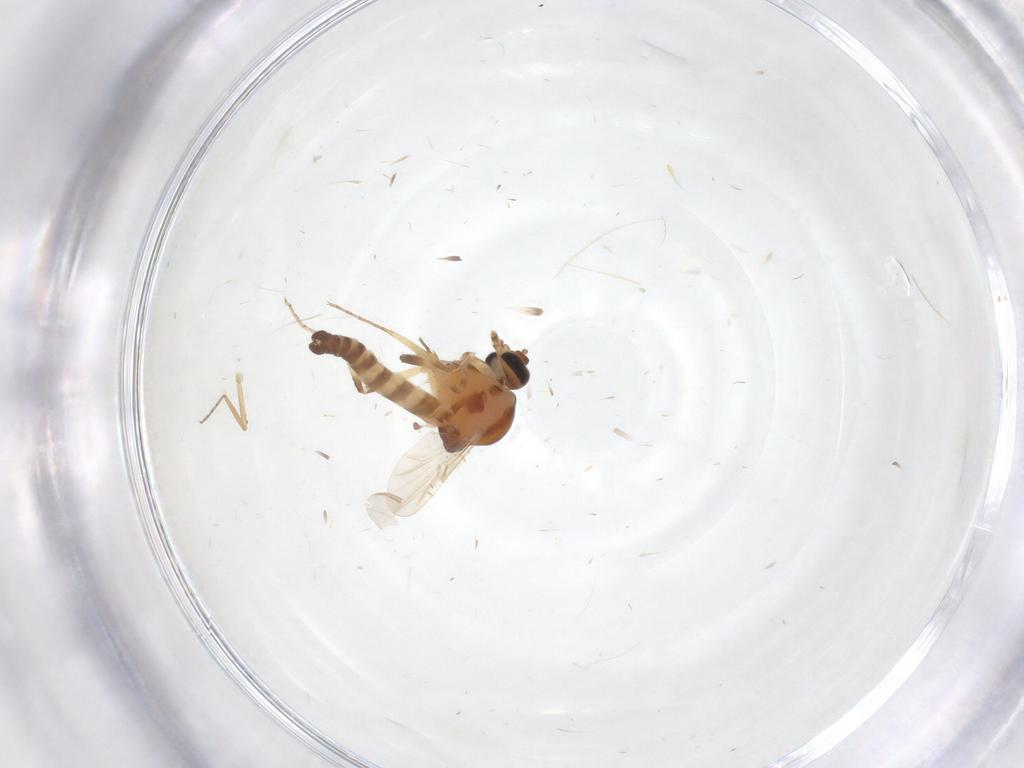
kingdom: Animalia
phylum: Arthropoda
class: Insecta
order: Diptera
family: Ceratopogonidae
